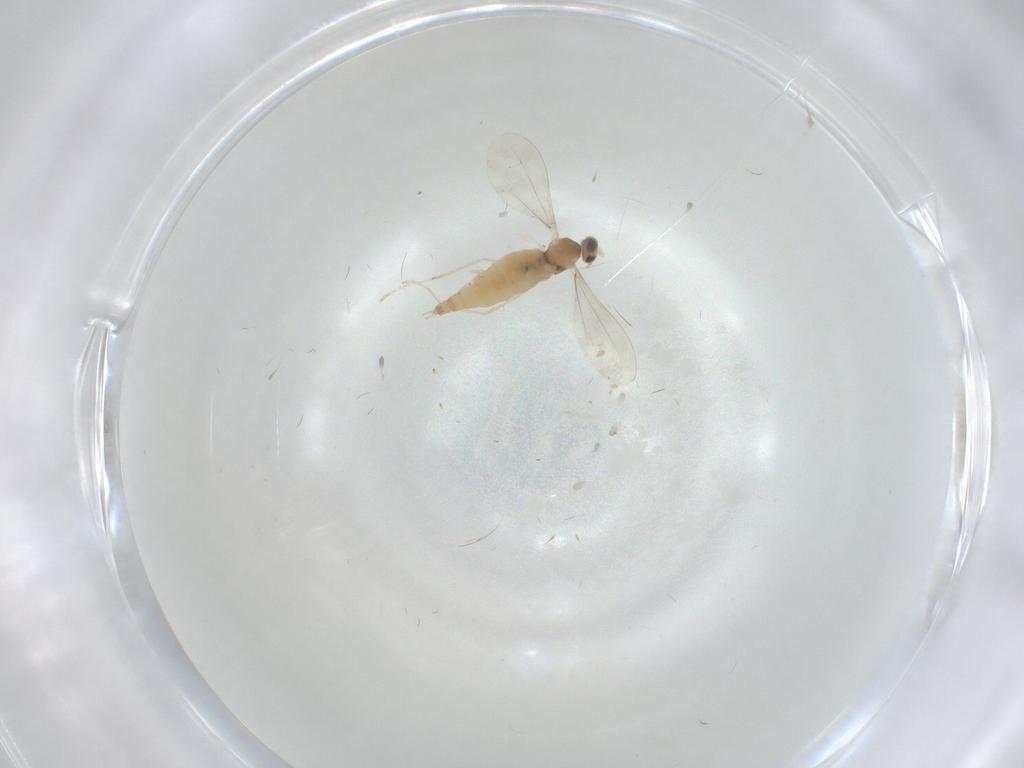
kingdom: Animalia
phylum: Arthropoda
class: Insecta
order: Diptera
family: Cecidomyiidae
